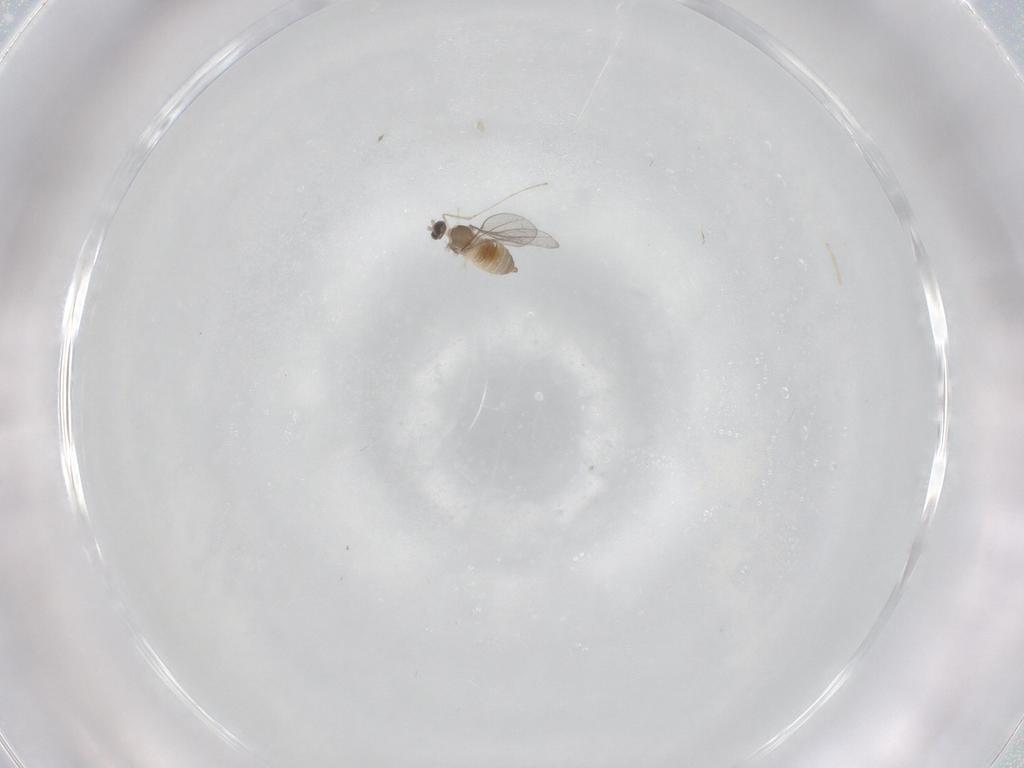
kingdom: Animalia
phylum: Arthropoda
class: Insecta
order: Diptera
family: Cecidomyiidae
